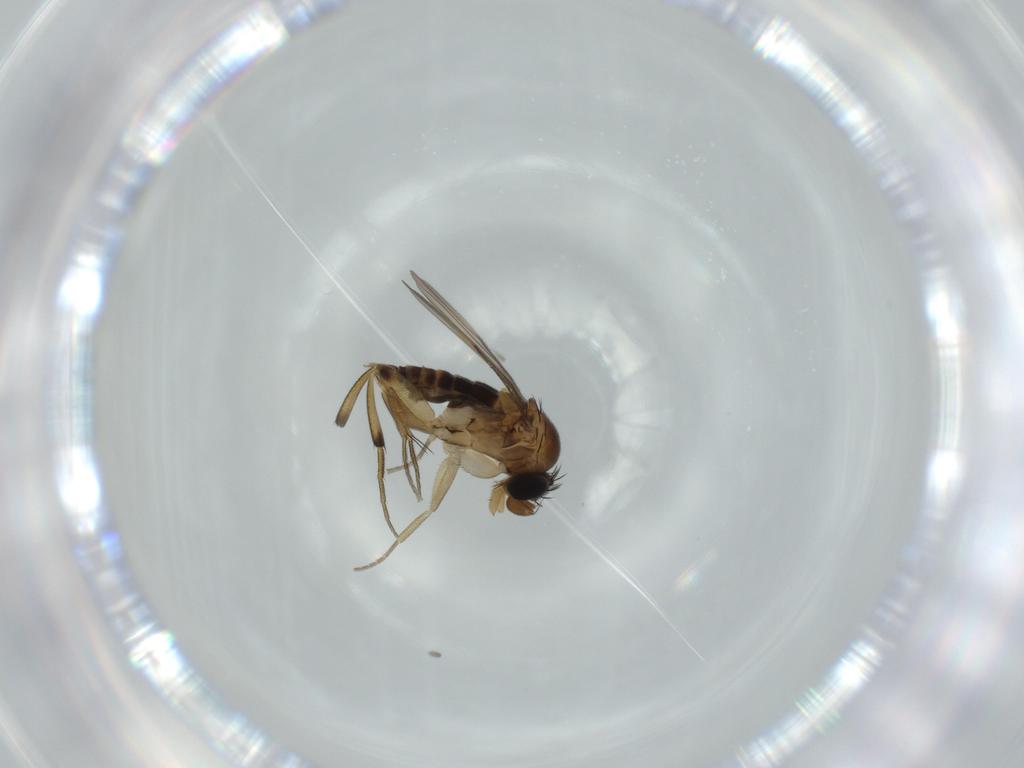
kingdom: Animalia
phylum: Arthropoda
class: Insecta
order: Diptera
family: Phoridae
